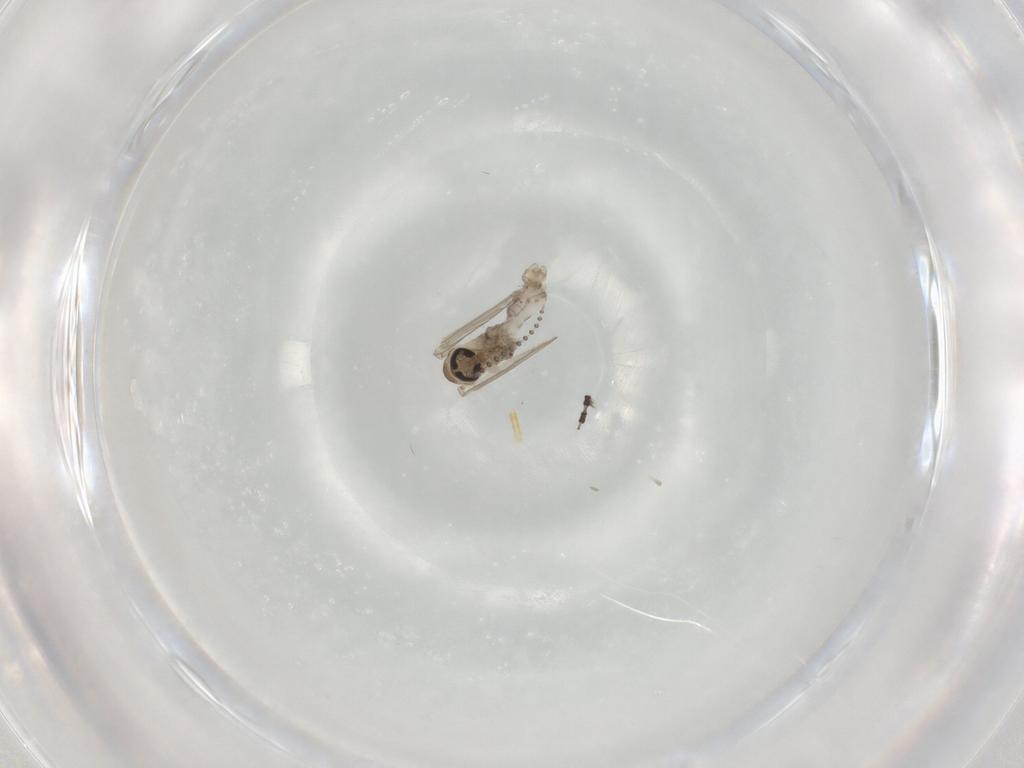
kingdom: Animalia
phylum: Arthropoda
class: Insecta
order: Diptera
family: Psychodidae
